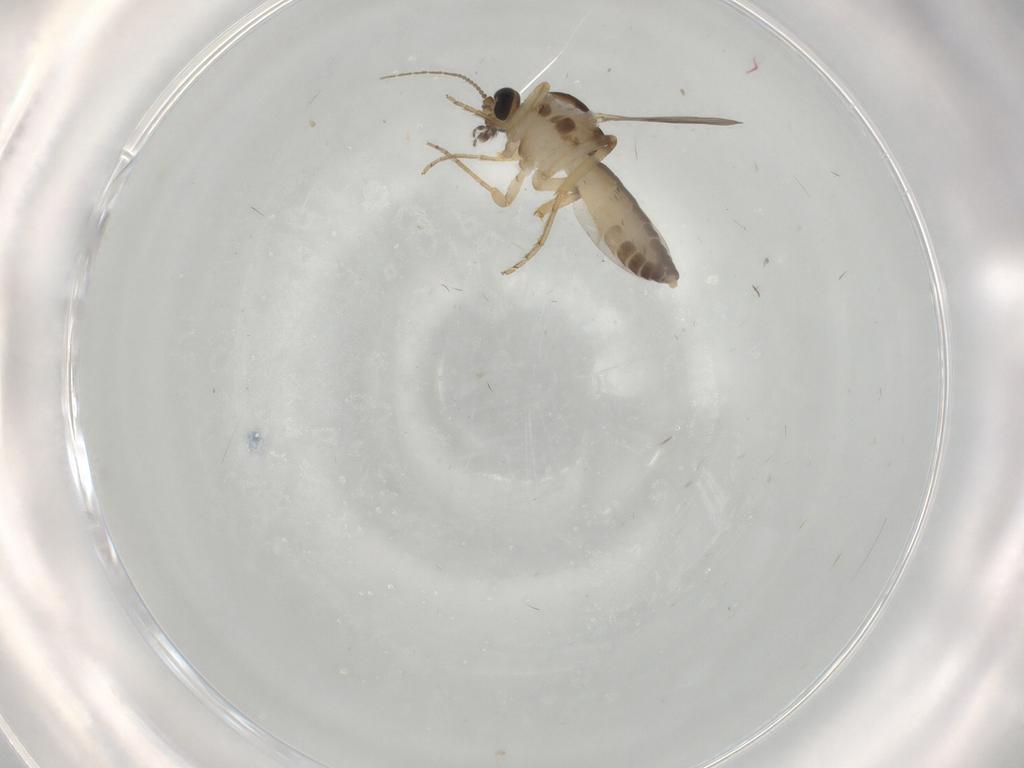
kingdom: Animalia
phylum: Arthropoda
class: Insecta
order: Diptera
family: Ceratopogonidae
